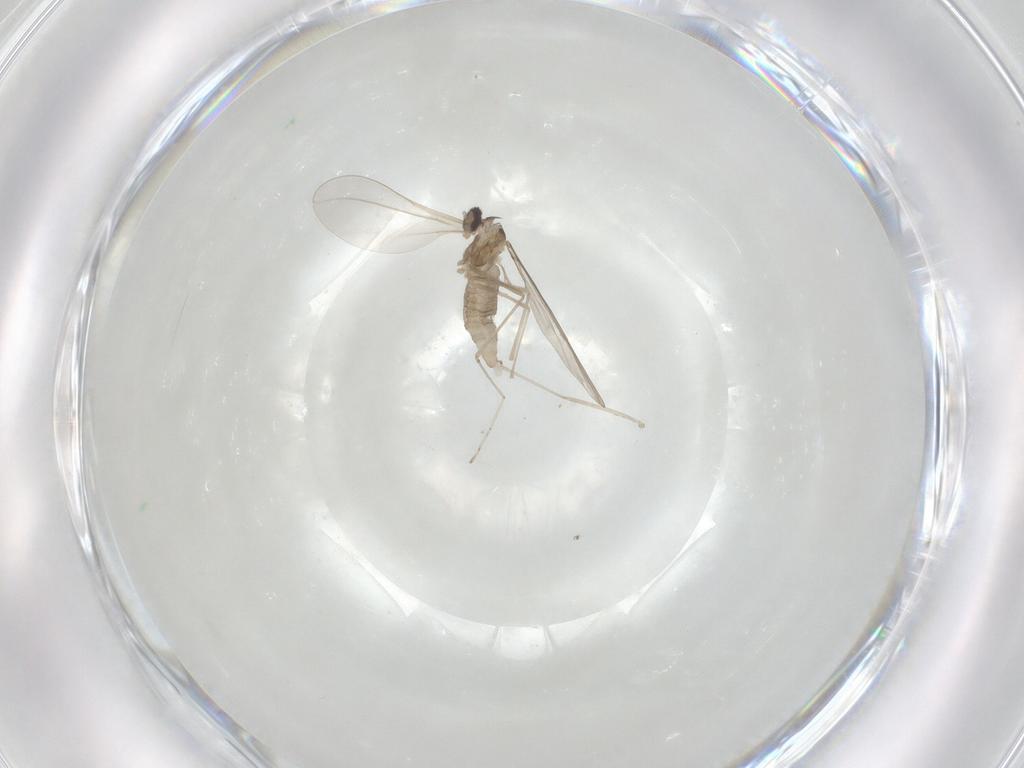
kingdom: Animalia
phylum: Arthropoda
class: Insecta
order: Diptera
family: Cecidomyiidae
